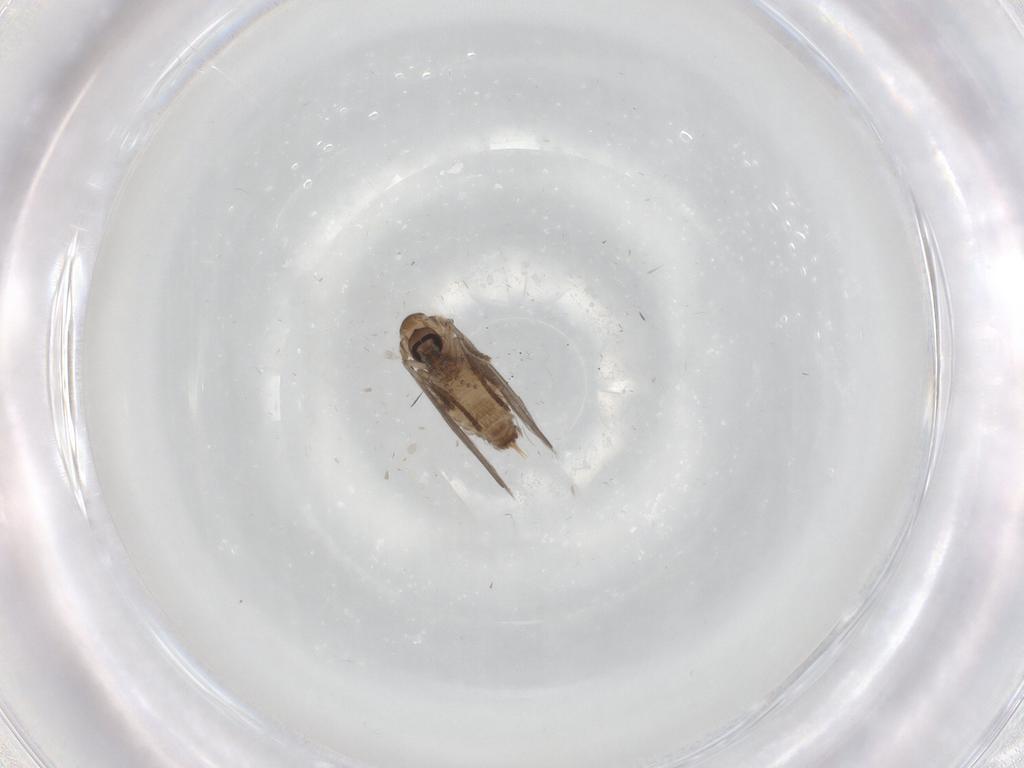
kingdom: Animalia
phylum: Arthropoda
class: Insecta
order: Diptera
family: Psychodidae
